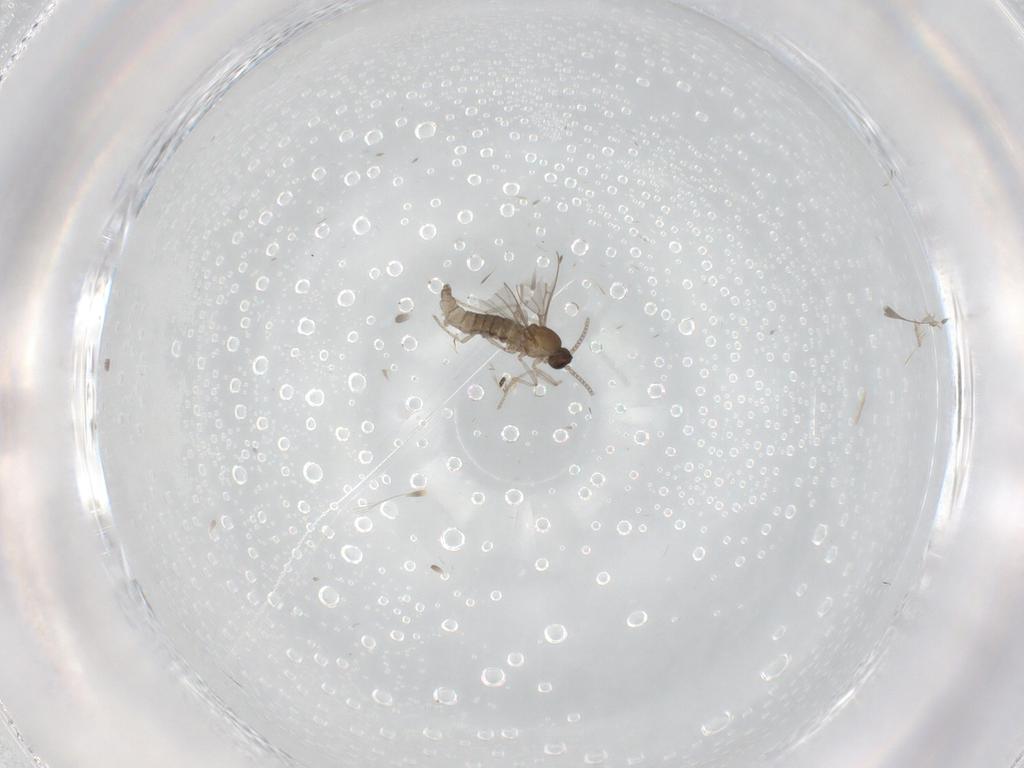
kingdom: Animalia
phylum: Arthropoda
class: Insecta
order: Diptera
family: Cecidomyiidae
